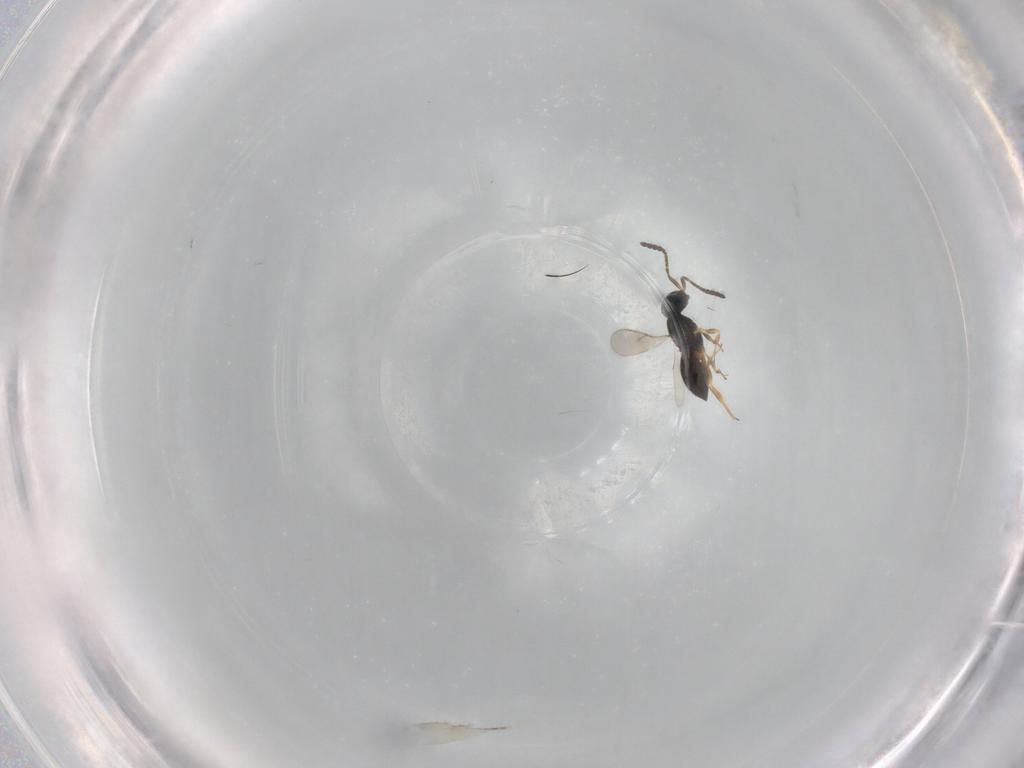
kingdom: Animalia
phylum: Arthropoda
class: Insecta
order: Hymenoptera
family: Scelionidae
